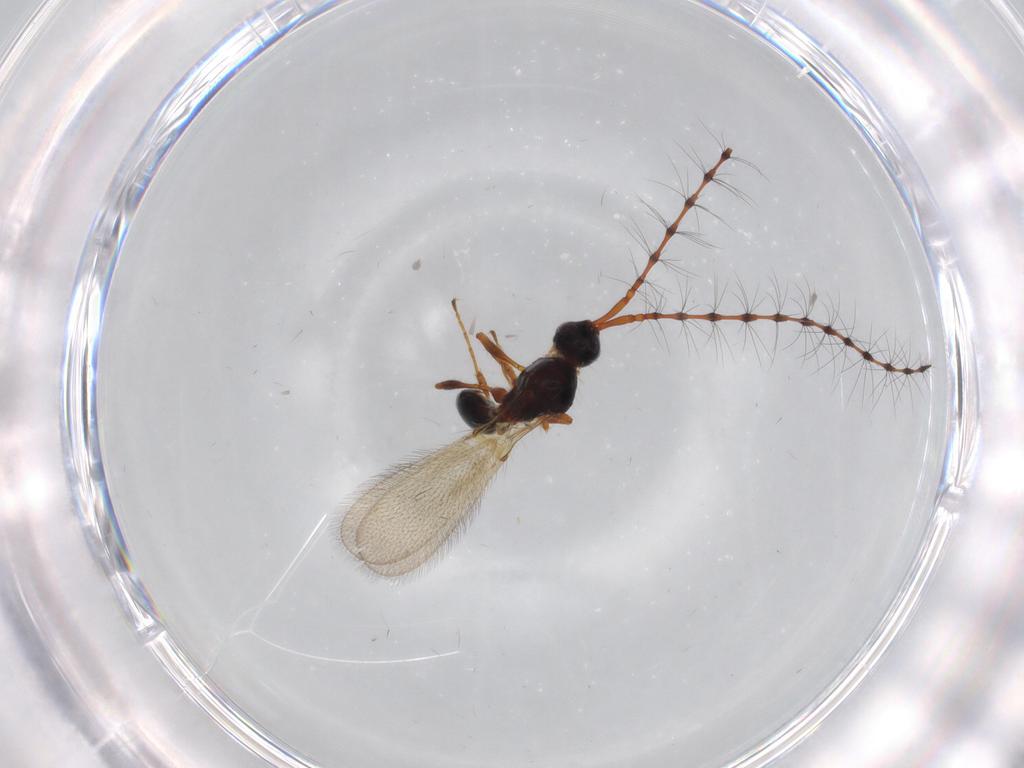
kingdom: Animalia
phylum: Arthropoda
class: Insecta
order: Hymenoptera
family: Diapriidae
